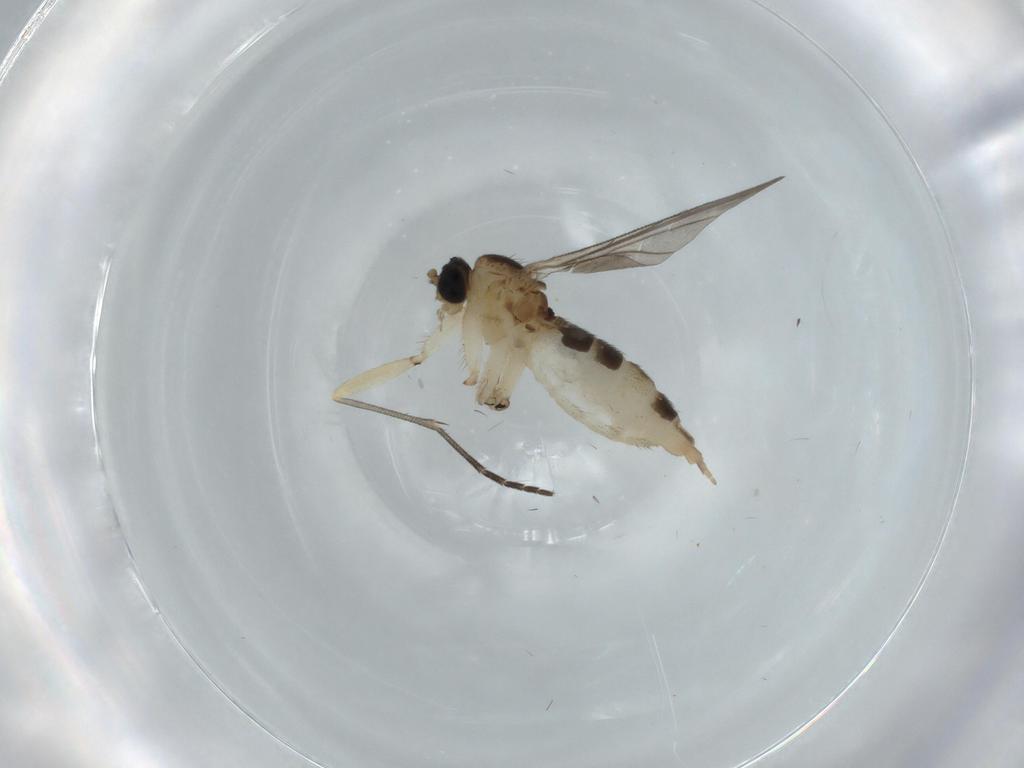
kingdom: Animalia
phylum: Arthropoda
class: Insecta
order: Diptera
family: Sciaridae
